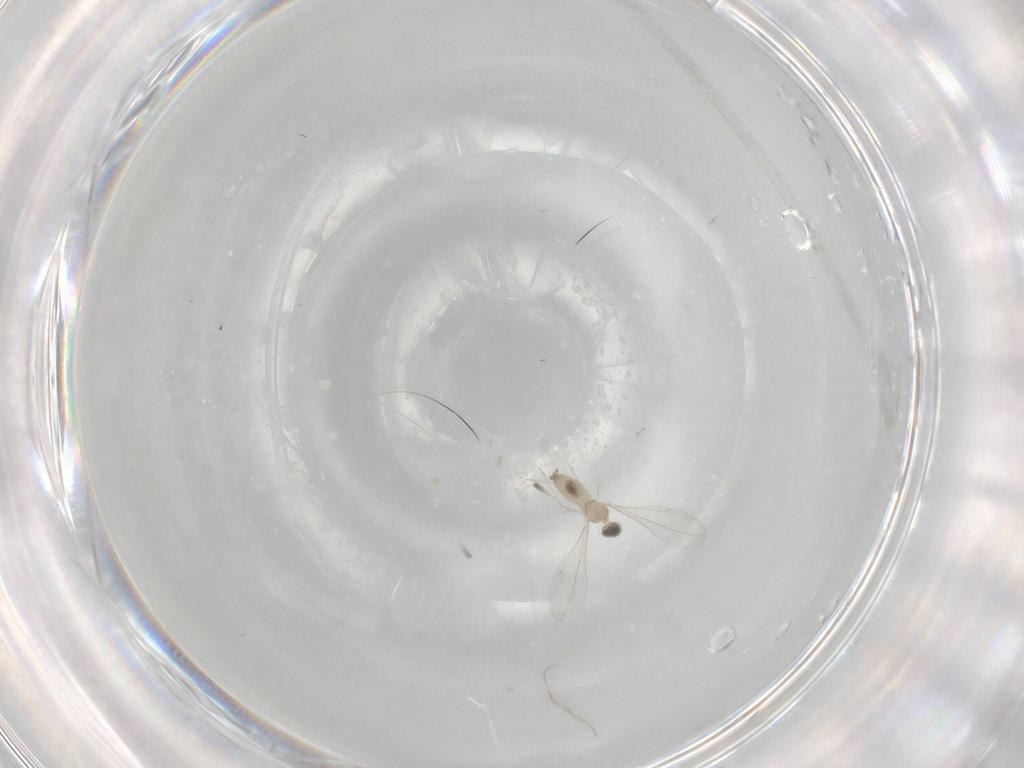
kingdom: Animalia
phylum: Arthropoda
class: Insecta
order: Diptera
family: Cecidomyiidae
